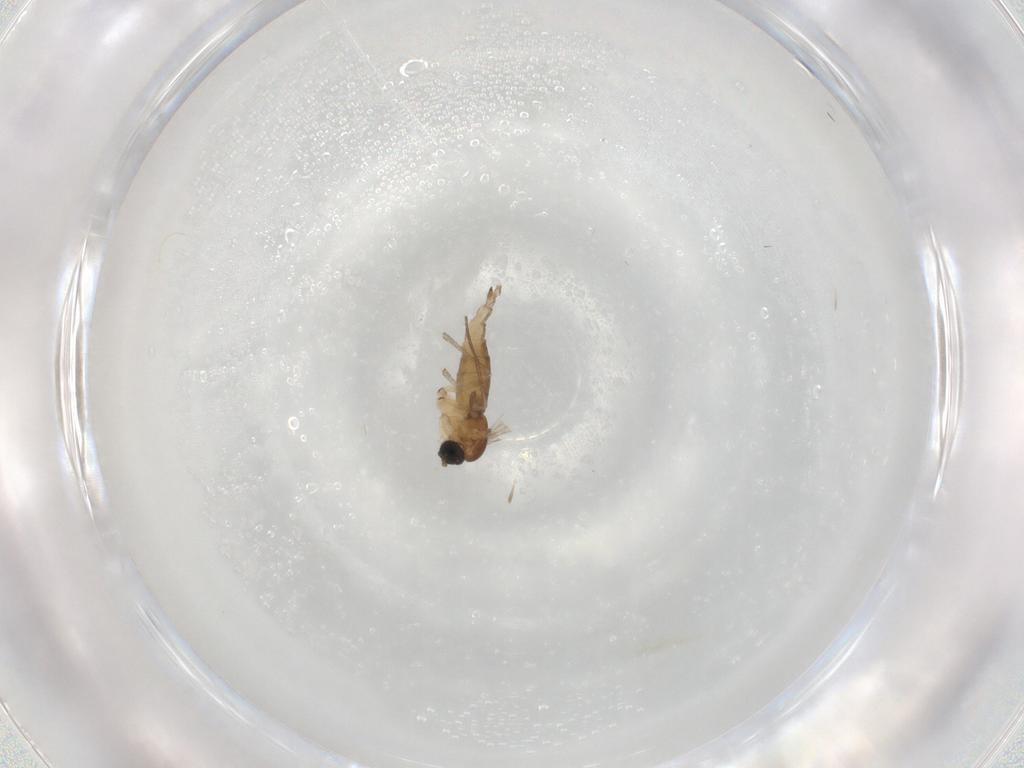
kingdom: Animalia
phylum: Arthropoda
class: Insecta
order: Diptera
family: Sciaridae
